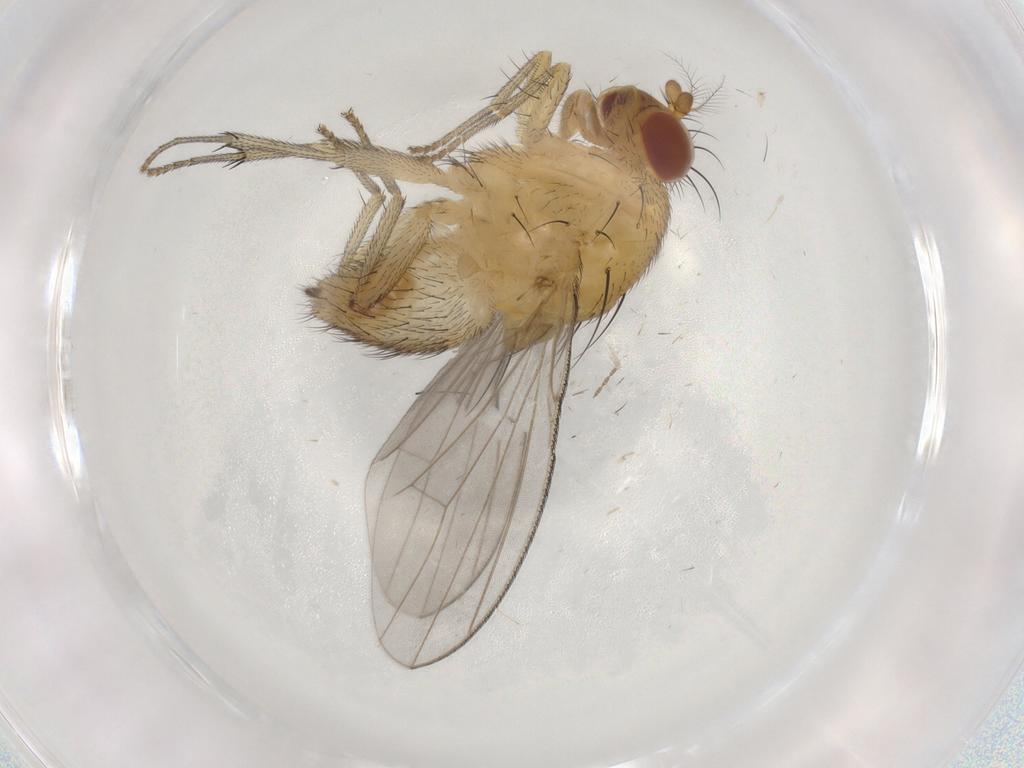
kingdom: Animalia
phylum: Arthropoda
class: Insecta
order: Diptera
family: Cecidomyiidae
